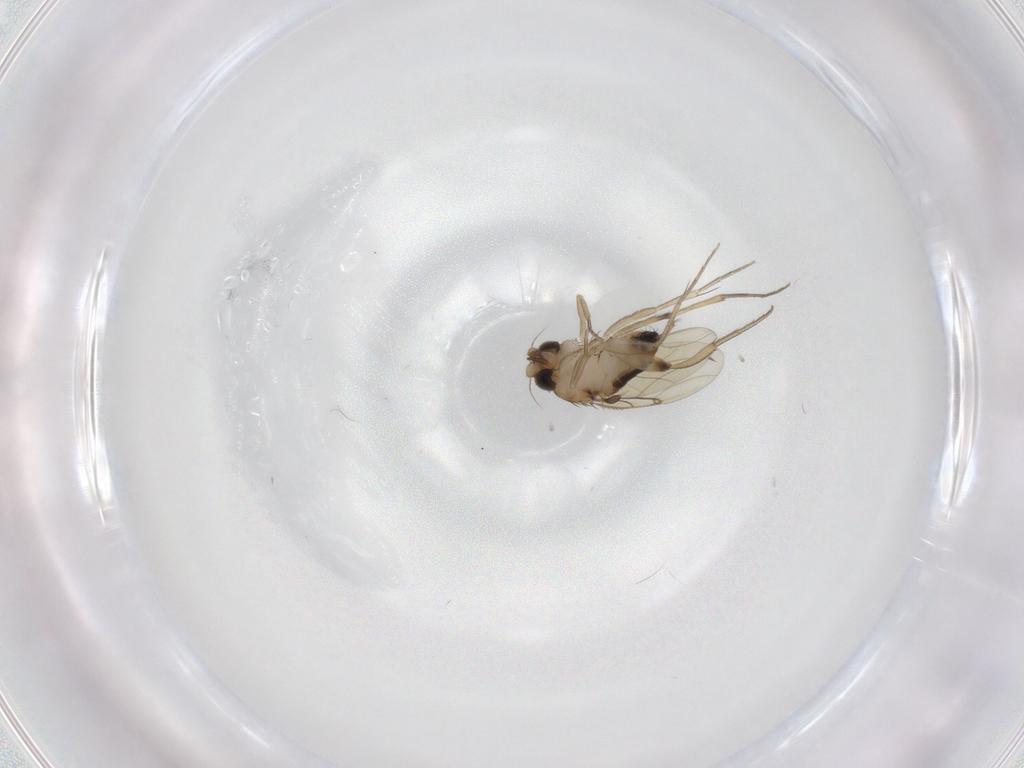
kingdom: Animalia
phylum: Arthropoda
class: Insecta
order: Diptera
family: Phoridae
